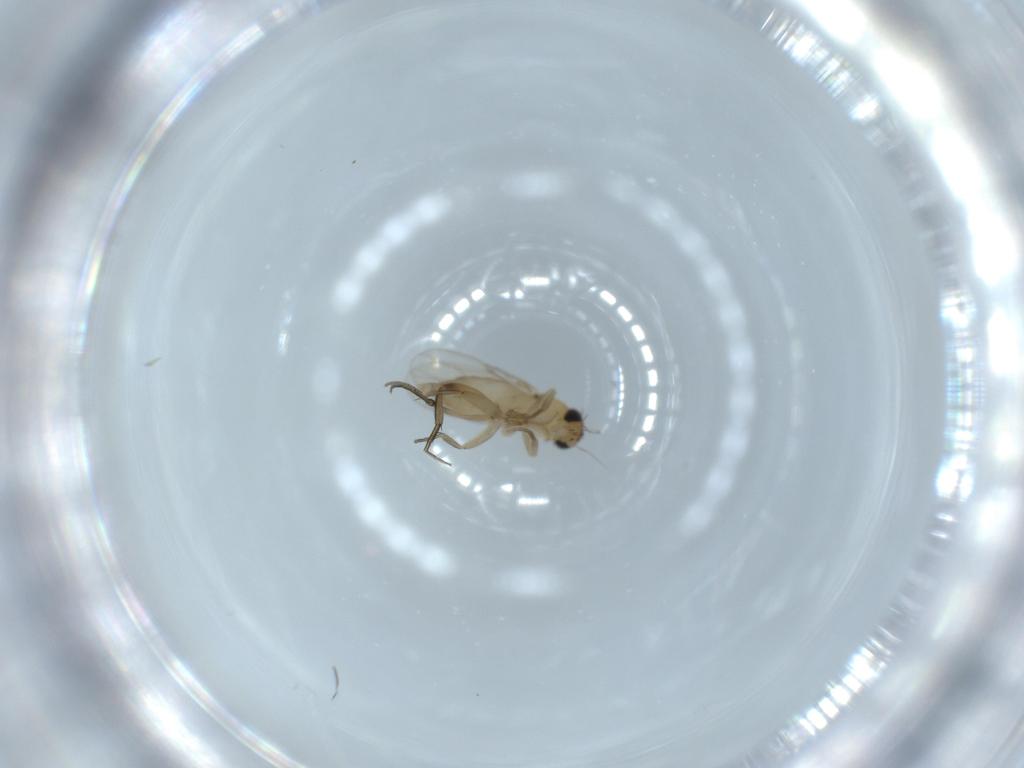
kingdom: Animalia
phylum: Arthropoda
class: Insecta
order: Diptera
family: Phoridae
